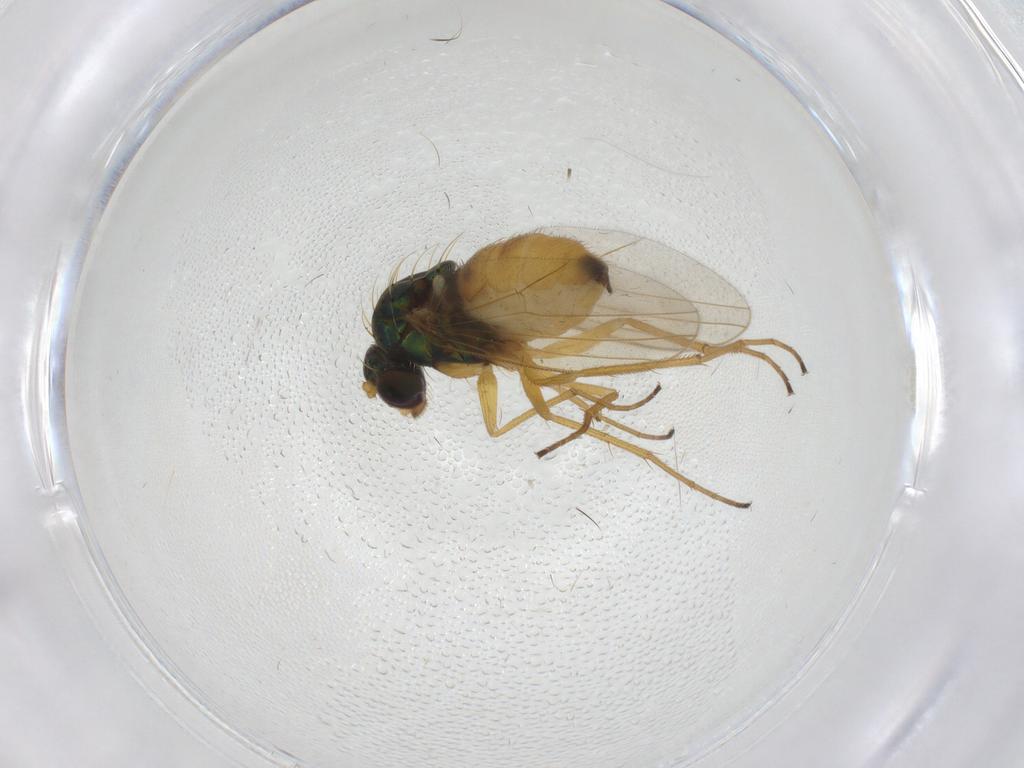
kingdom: Animalia
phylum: Arthropoda
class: Insecta
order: Diptera
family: Dolichopodidae
